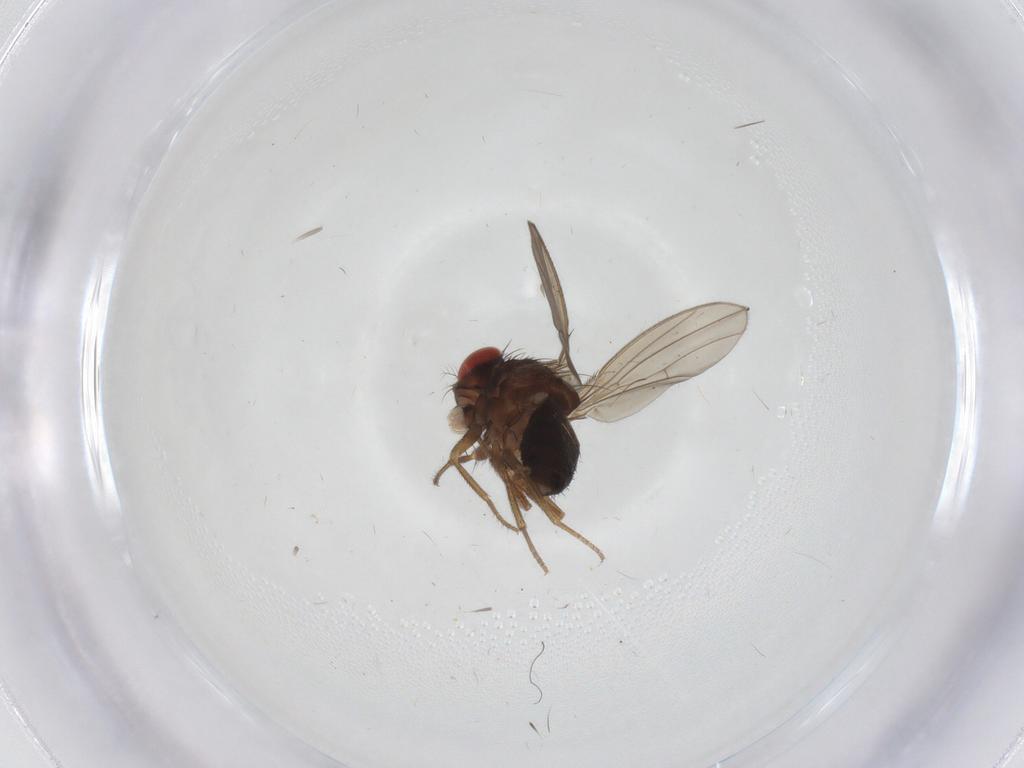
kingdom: Animalia
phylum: Arthropoda
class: Insecta
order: Diptera
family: Drosophilidae
